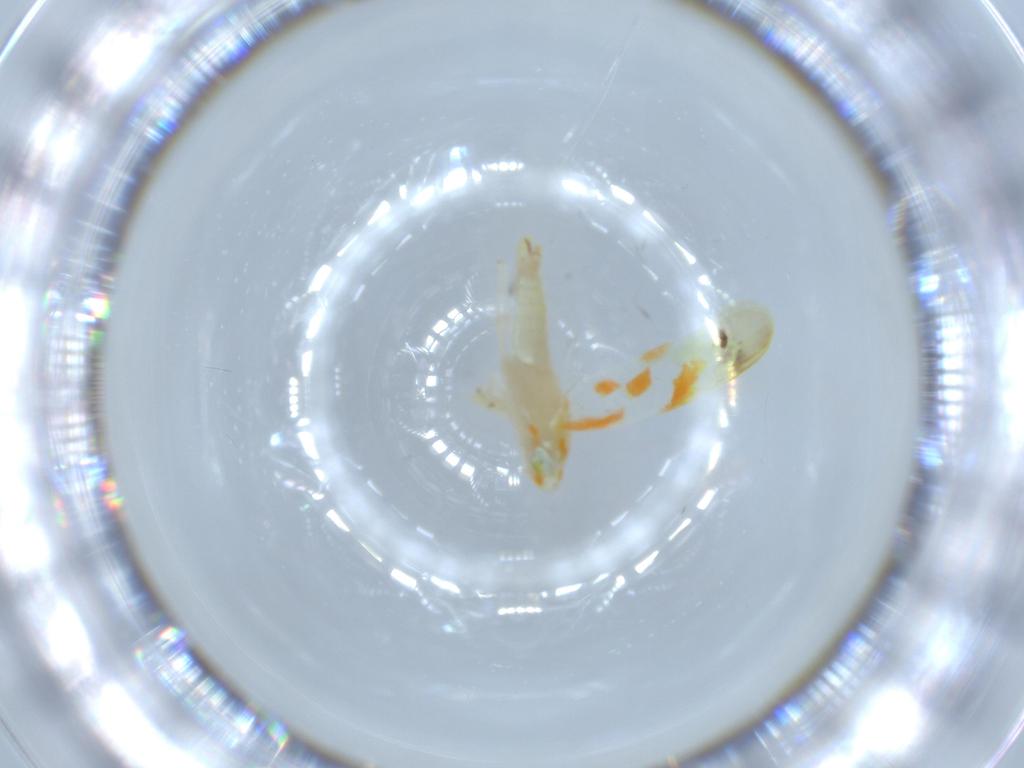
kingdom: Animalia
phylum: Arthropoda
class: Insecta
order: Hemiptera
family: Cicadellidae
